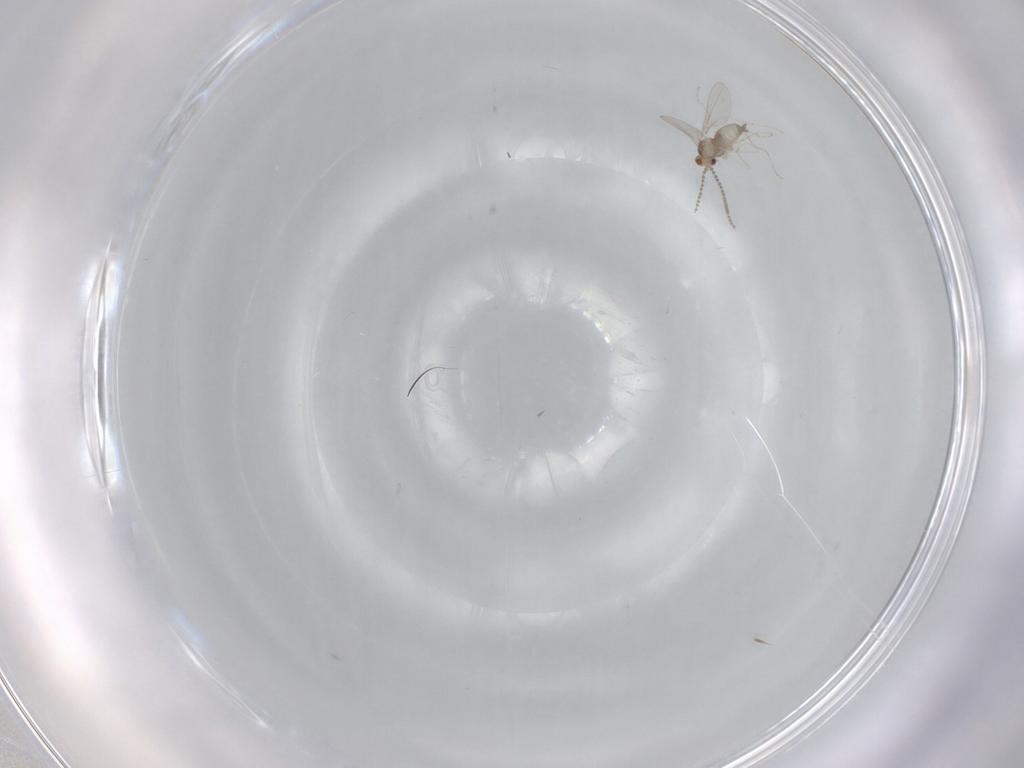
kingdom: Animalia
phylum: Arthropoda
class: Insecta
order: Diptera
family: Cecidomyiidae
